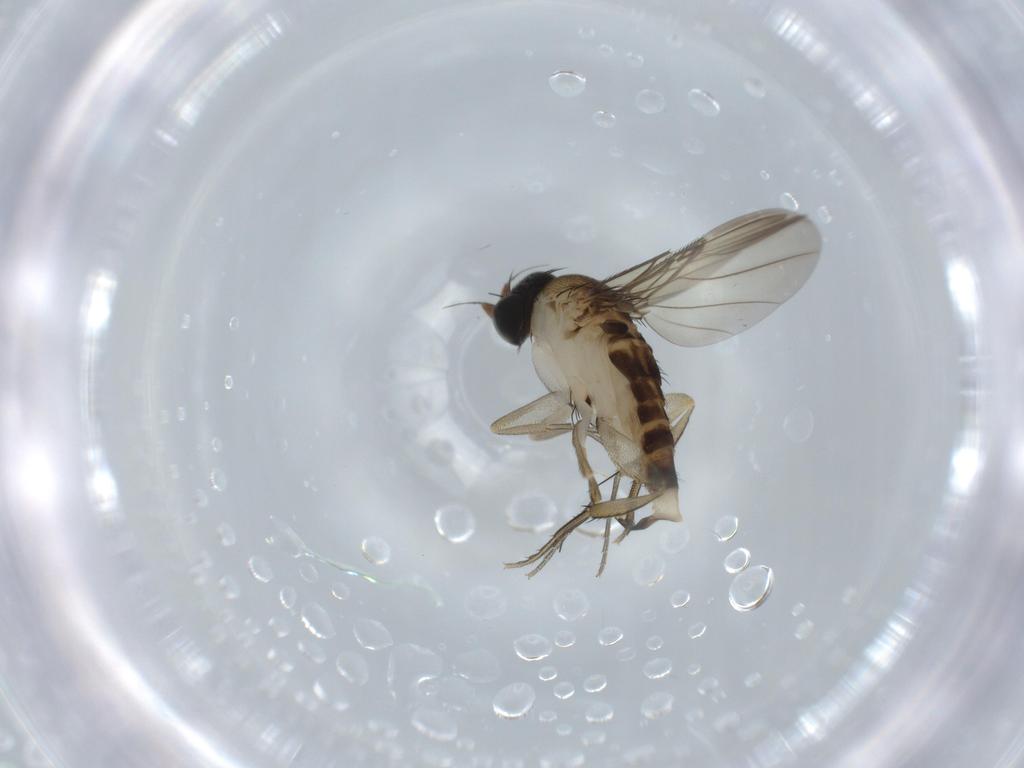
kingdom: Animalia
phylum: Arthropoda
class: Insecta
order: Diptera
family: Phoridae
